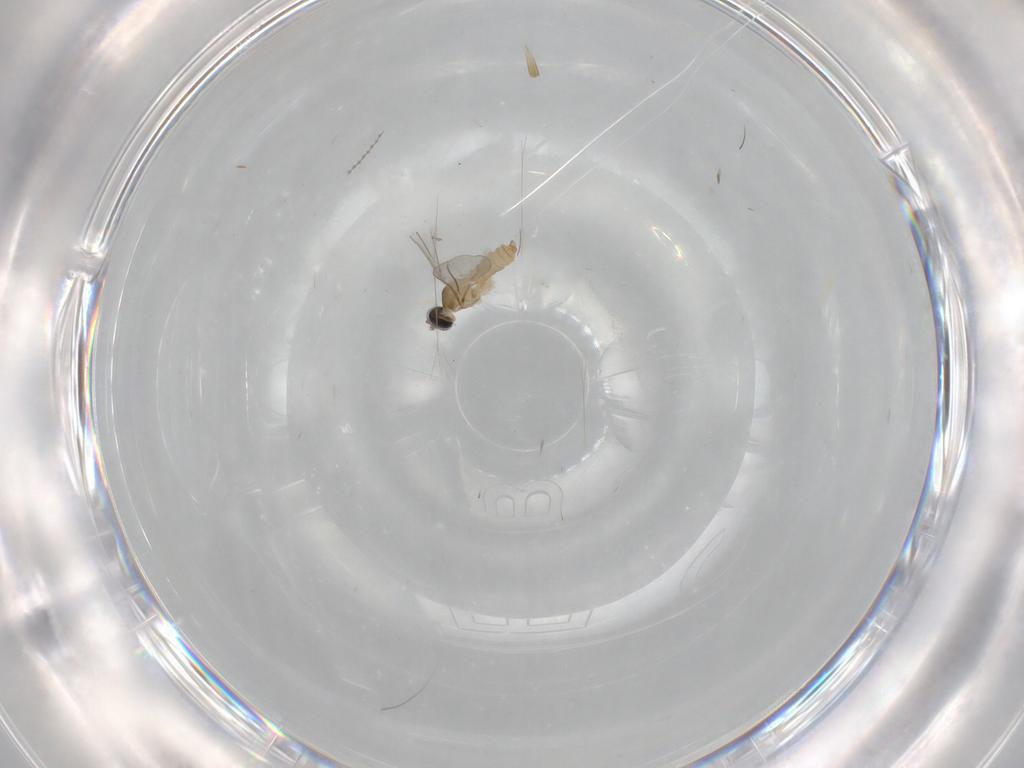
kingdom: Animalia
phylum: Arthropoda
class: Insecta
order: Diptera
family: Cecidomyiidae
